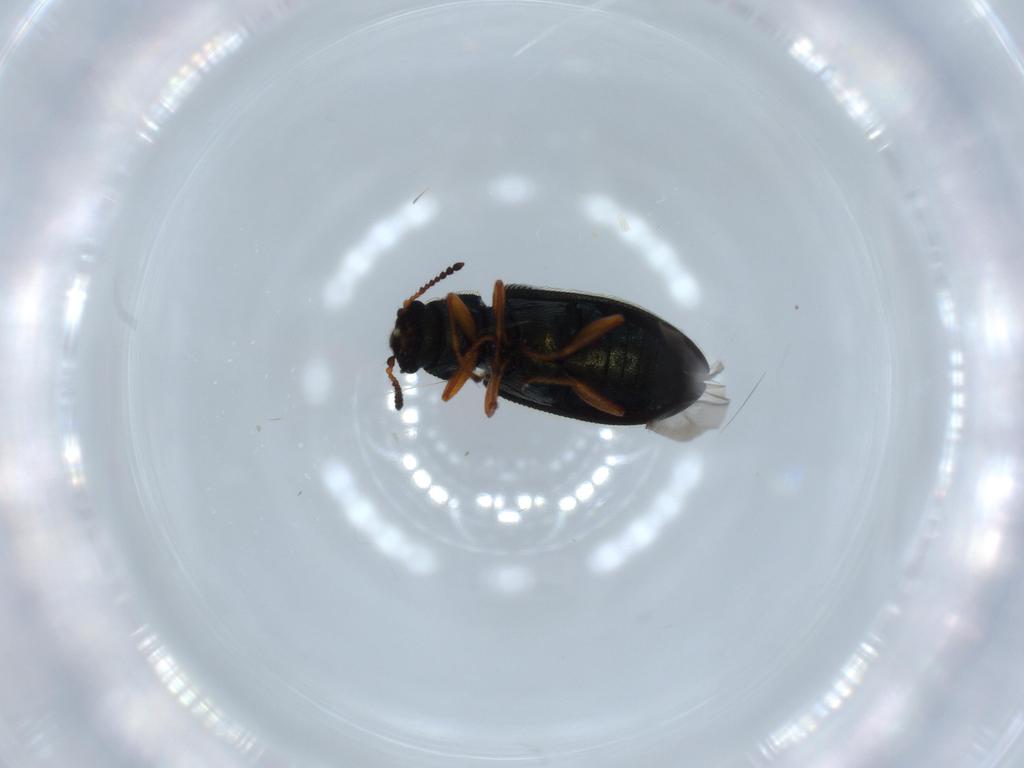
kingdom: Animalia
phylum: Arthropoda
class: Insecta
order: Coleoptera
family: Melyridae
